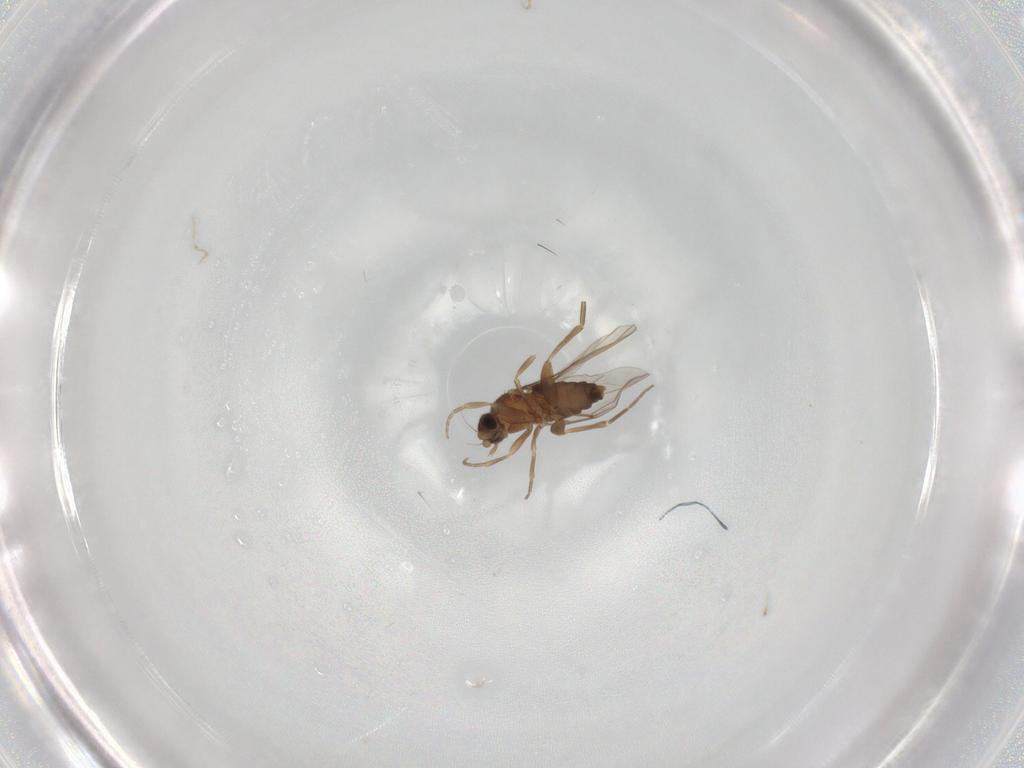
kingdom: Animalia
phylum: Arthropoda
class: Insecta
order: Diptera
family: Phoridae
